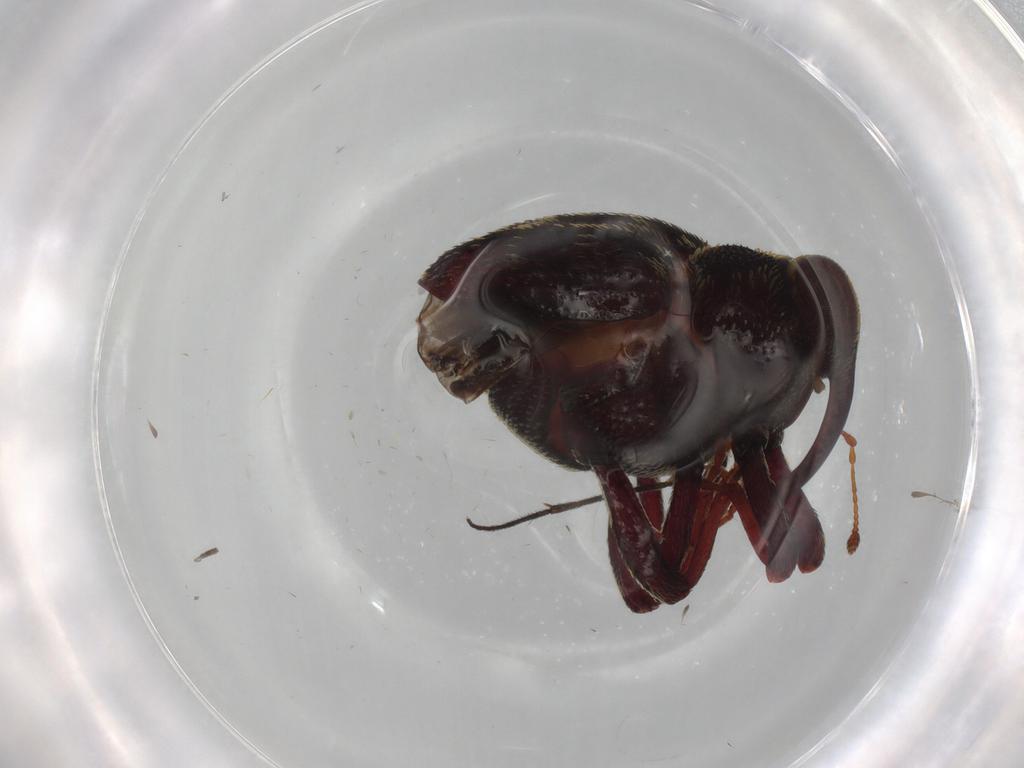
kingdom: Animalia
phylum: Arthropoda
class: Insecta
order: Coleoptera
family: Curculionidae
